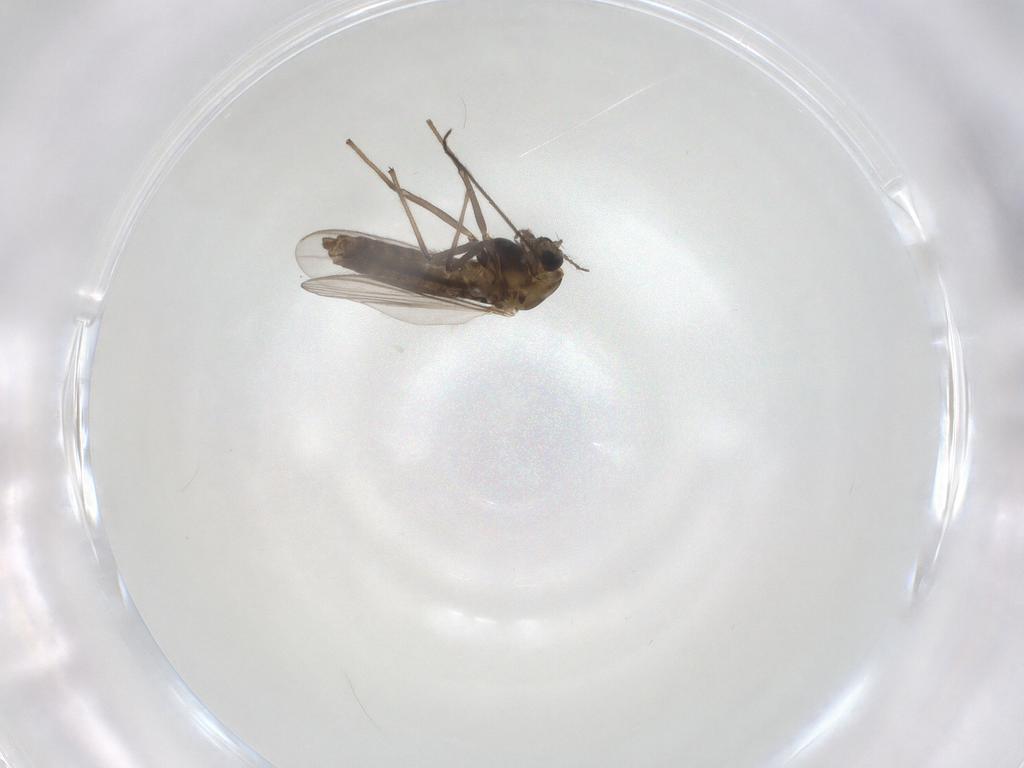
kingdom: Animalia
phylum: Arthropoda
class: Insecta
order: Diptera
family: Chironomidae
